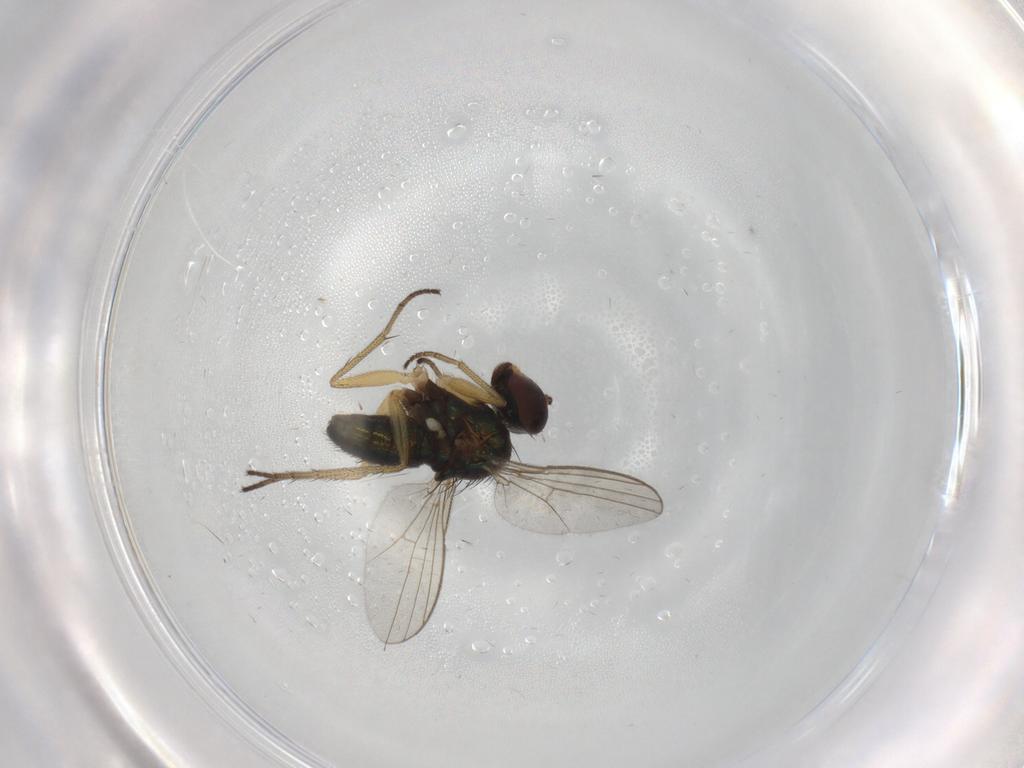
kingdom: Animalia
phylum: Arthropoda
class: Insecta
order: Diptera
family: Dolichopodidae
